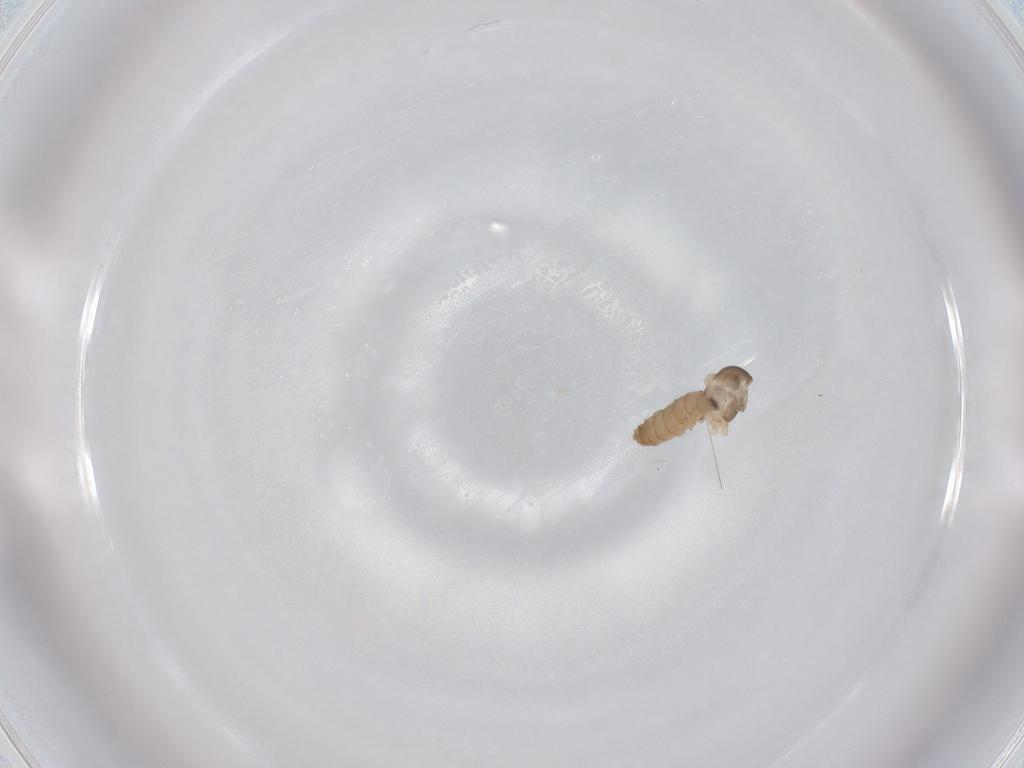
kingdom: Animalia
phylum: Arthropoda
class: Insecta
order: Diptera
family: Cecidomyiidae
